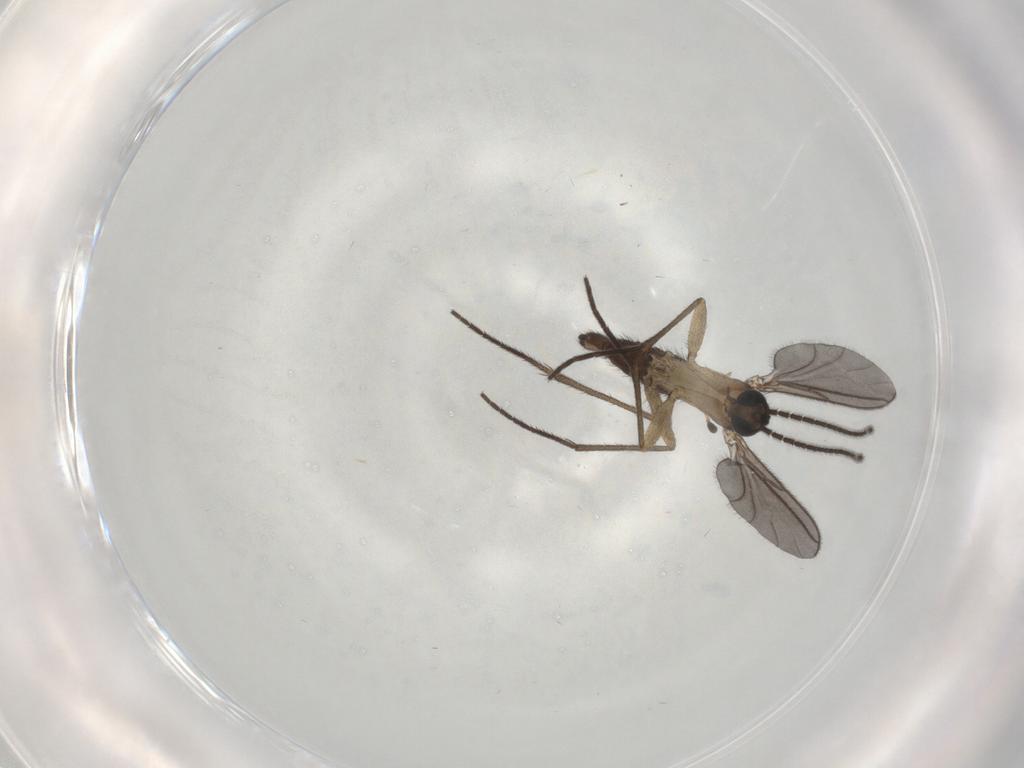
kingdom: Animalia
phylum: Arthropoda
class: Insecta
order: Diptera
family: Sciaridae
